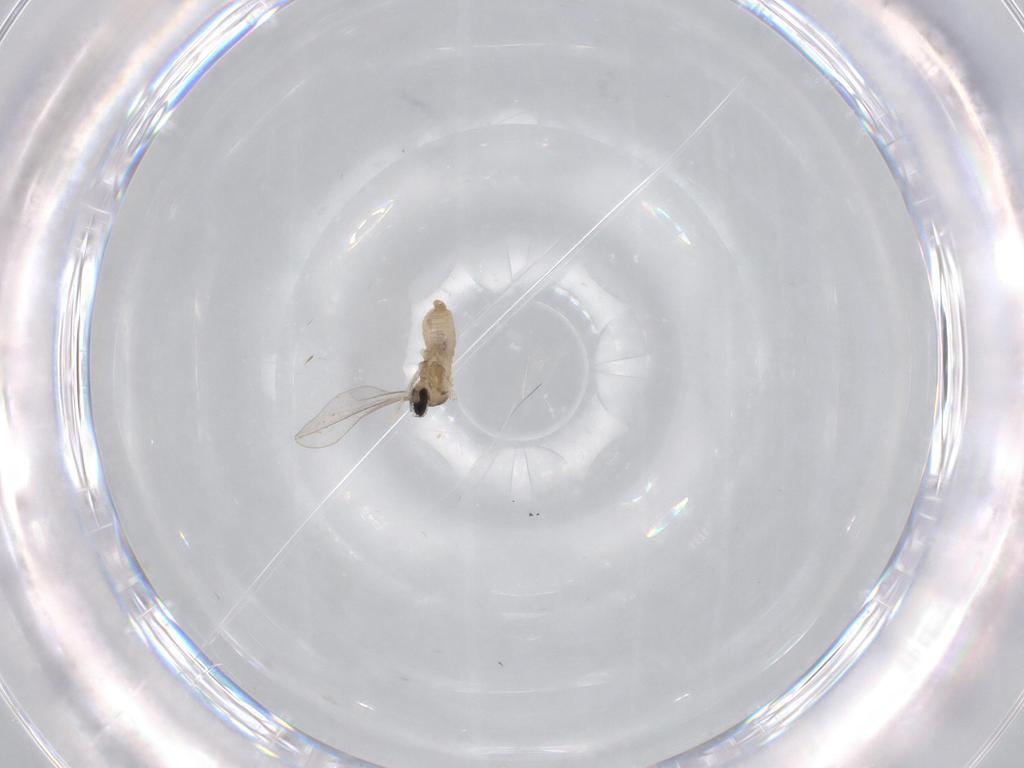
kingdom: Animalia
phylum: Arthropoda
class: Insecta
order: Diptera
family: Cecidomyiidae
